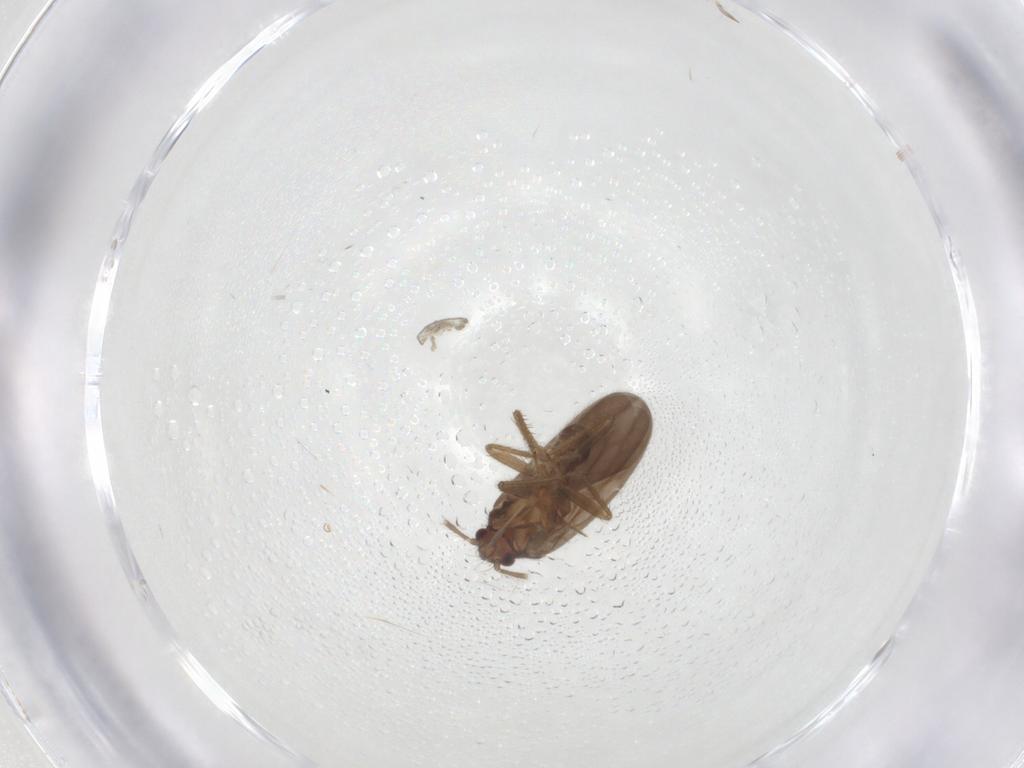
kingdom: Animalia
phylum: Arthropoda
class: Insecta
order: Hemiptera
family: Ceratocombidae
